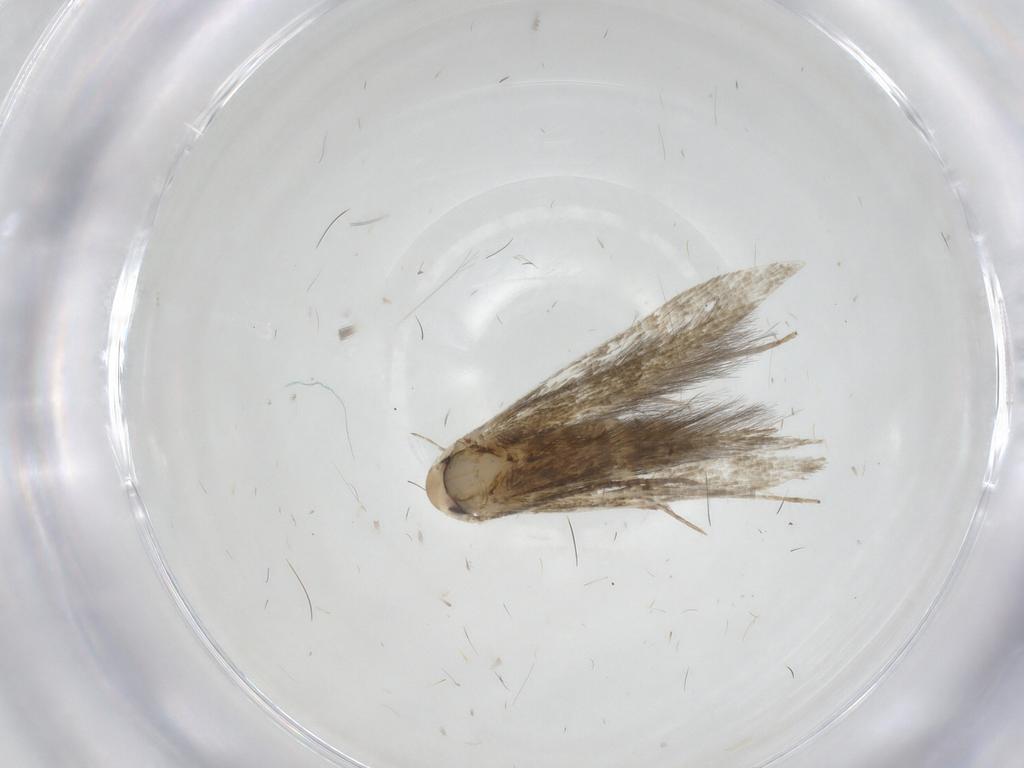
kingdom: Animalia
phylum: Arthropoda
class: Insecta
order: Lepidoptera
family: Stathmopodidae
